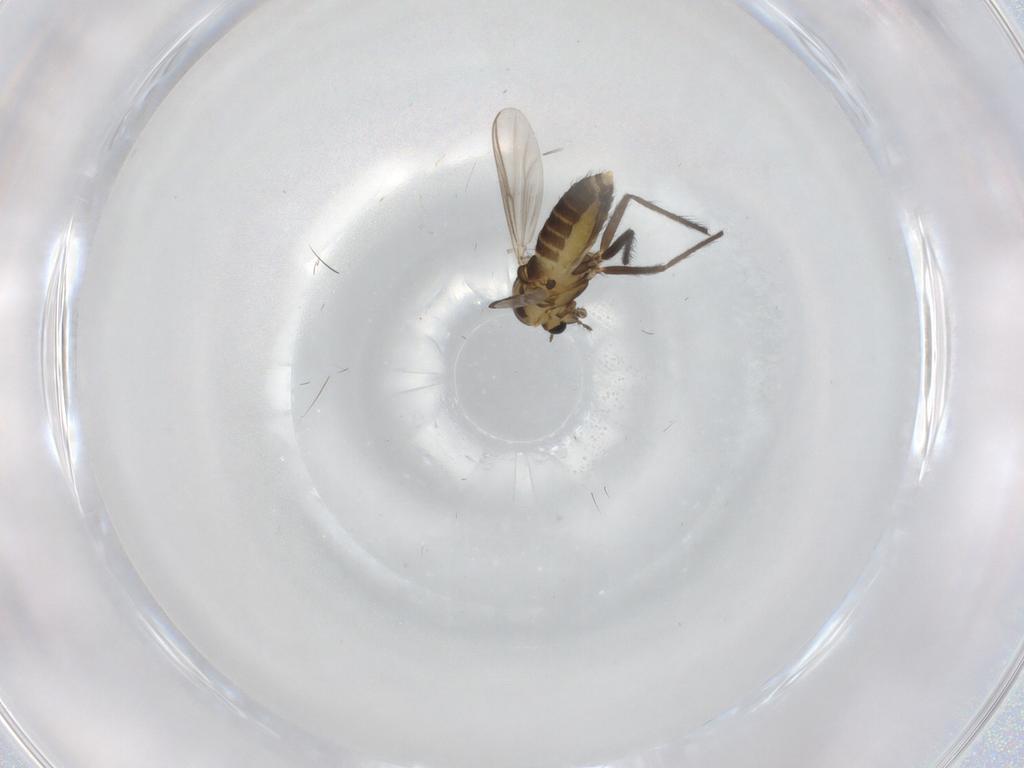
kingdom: Animalia
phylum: Arthropoda
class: Insecta
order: Diptera
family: Chironomidae
